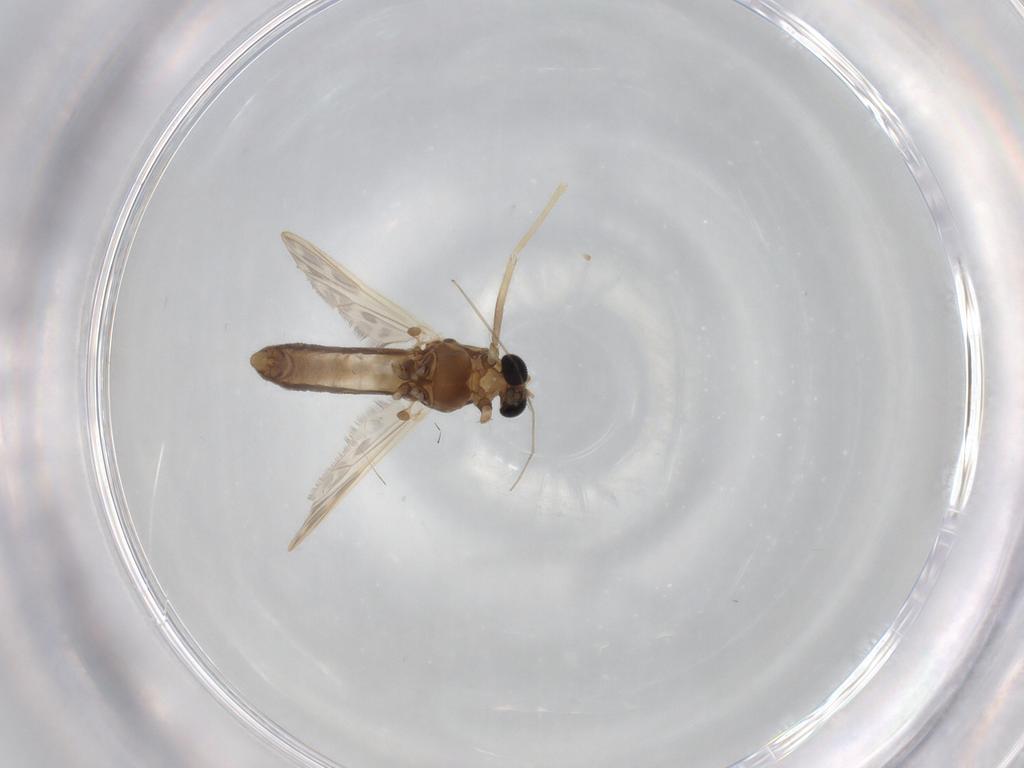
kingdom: Animalia
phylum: Arthropoda
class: Insecta
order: Diptera
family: Chironomidae
